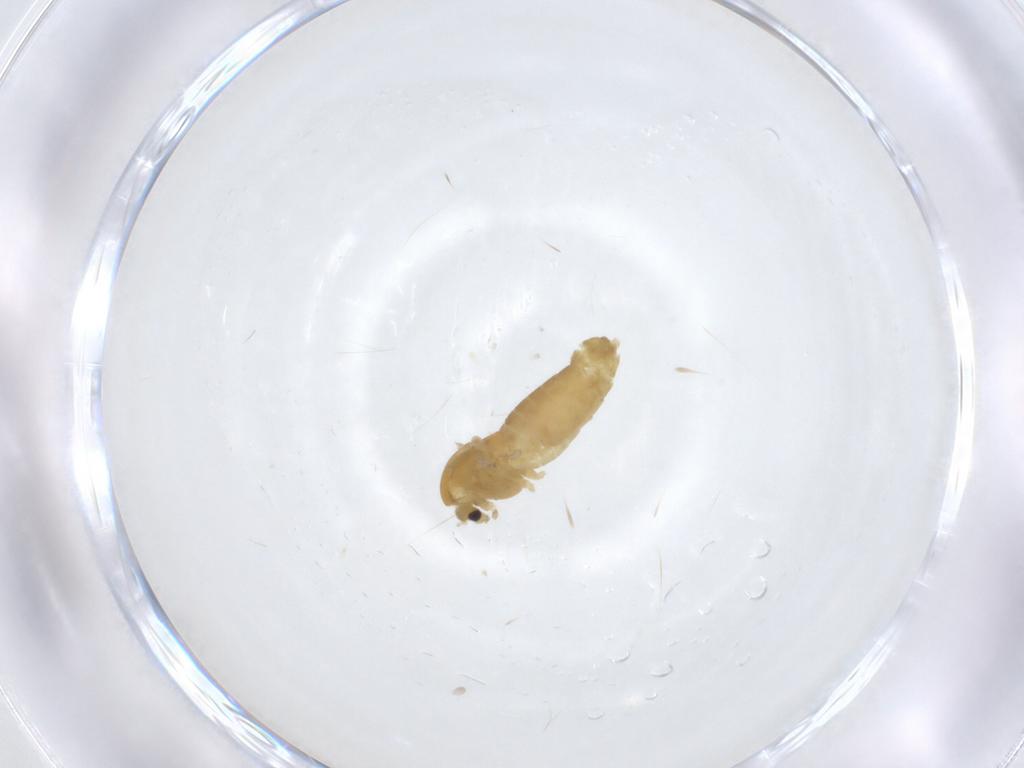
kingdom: Animalia
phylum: Arthropoda
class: Insecta
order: Diptera
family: Chironomidae
